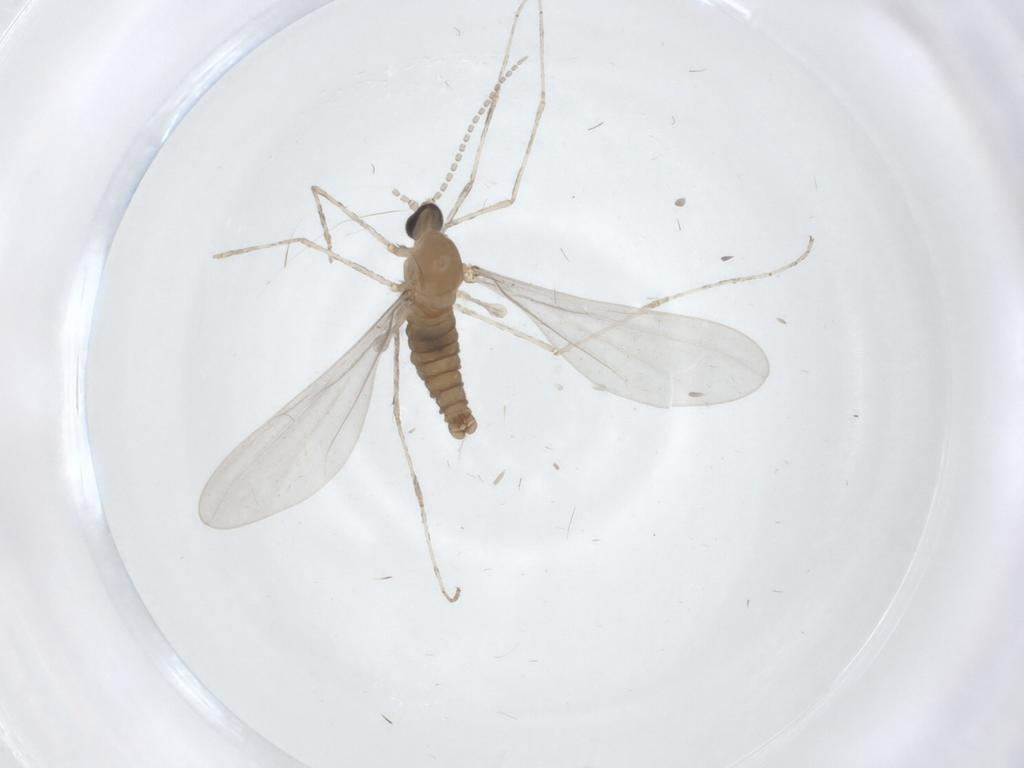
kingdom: Animalia
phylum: Arthropoda
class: Insecta
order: Diptera
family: Cecidomyiidae
